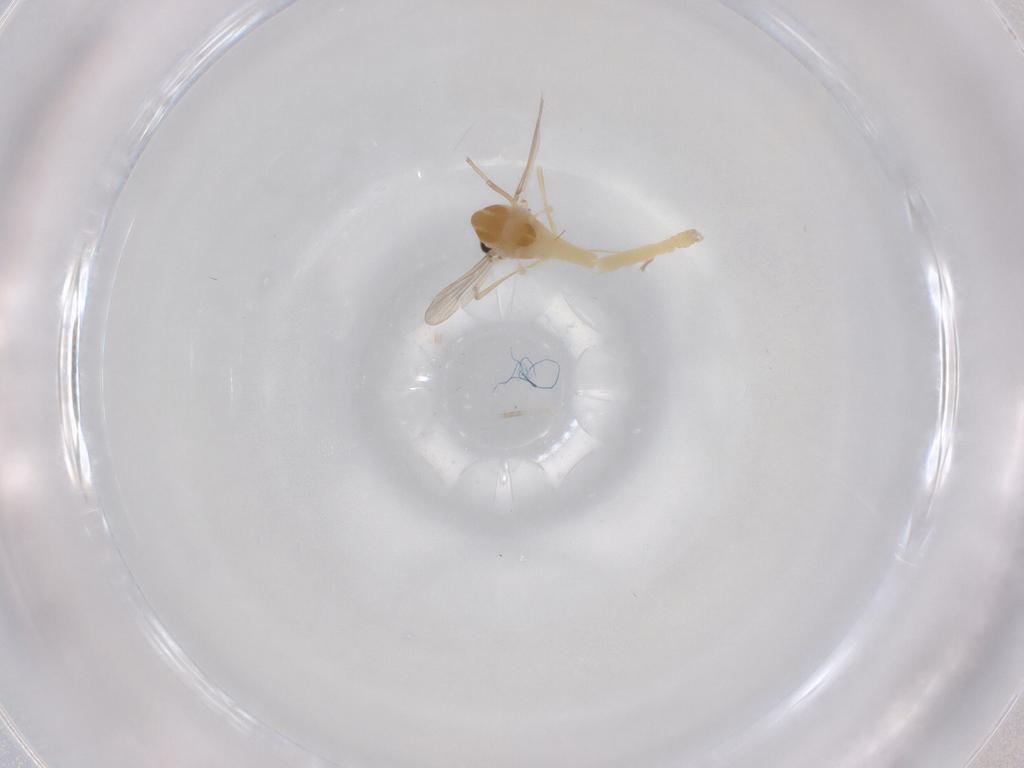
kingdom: Animalia
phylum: Arthropoda
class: Insecta
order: Diptera
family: Chironomidae
